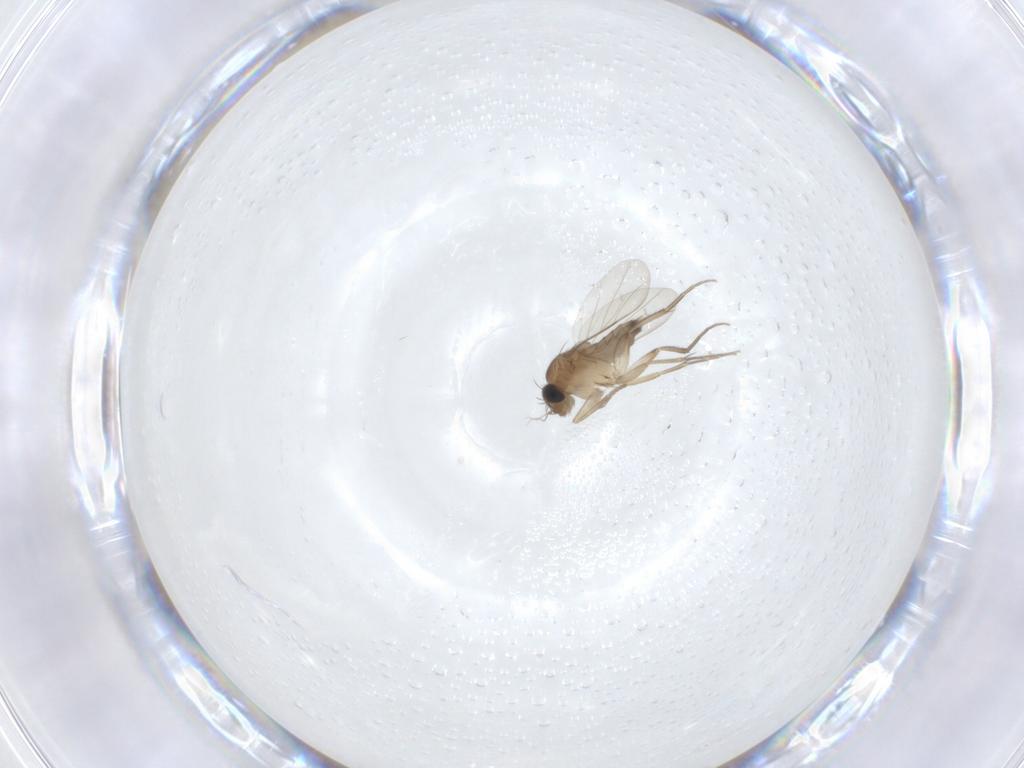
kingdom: Animalia
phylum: Arthropoda
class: Insecta
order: Diptera
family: Phoridae
